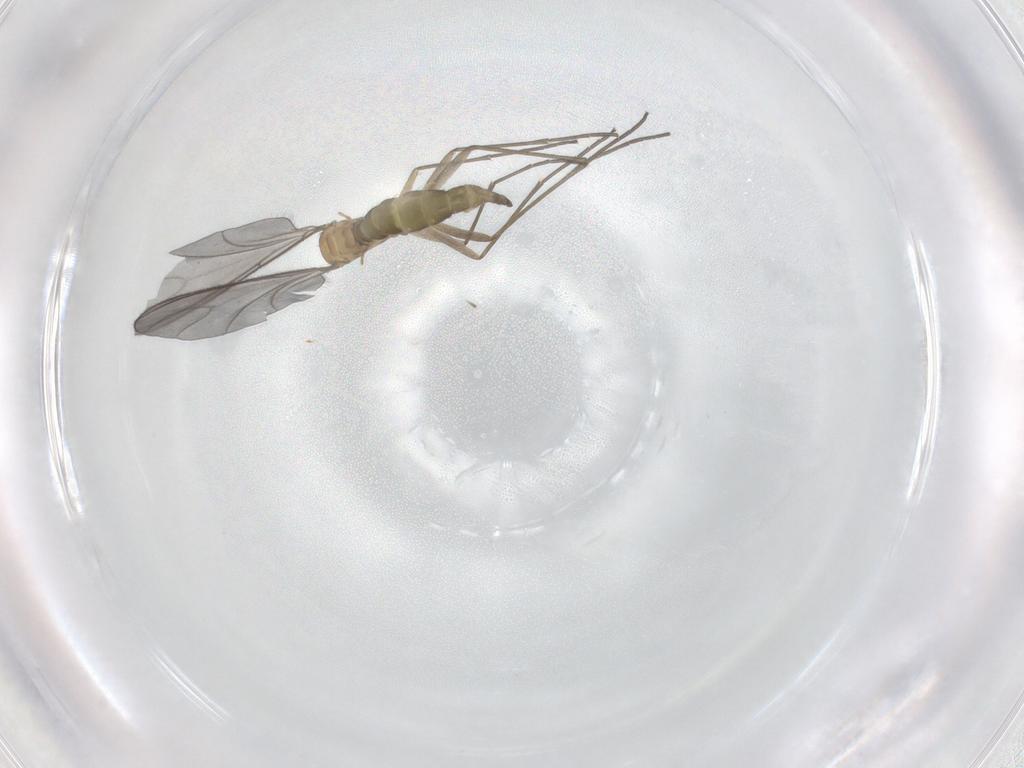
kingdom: Animalia
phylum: Arthropoda
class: Insecta
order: Diptera
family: Sciaridae
